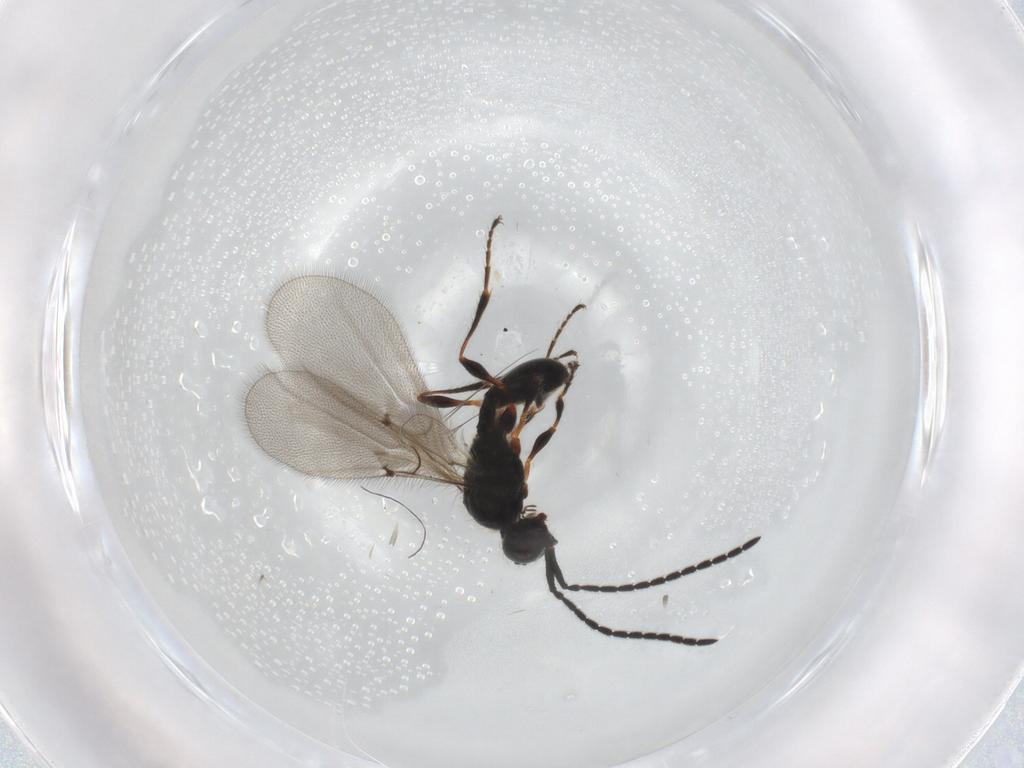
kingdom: Animalia
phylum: Arthropoda
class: Insecta
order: Hymenoptera
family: Diapriidae
